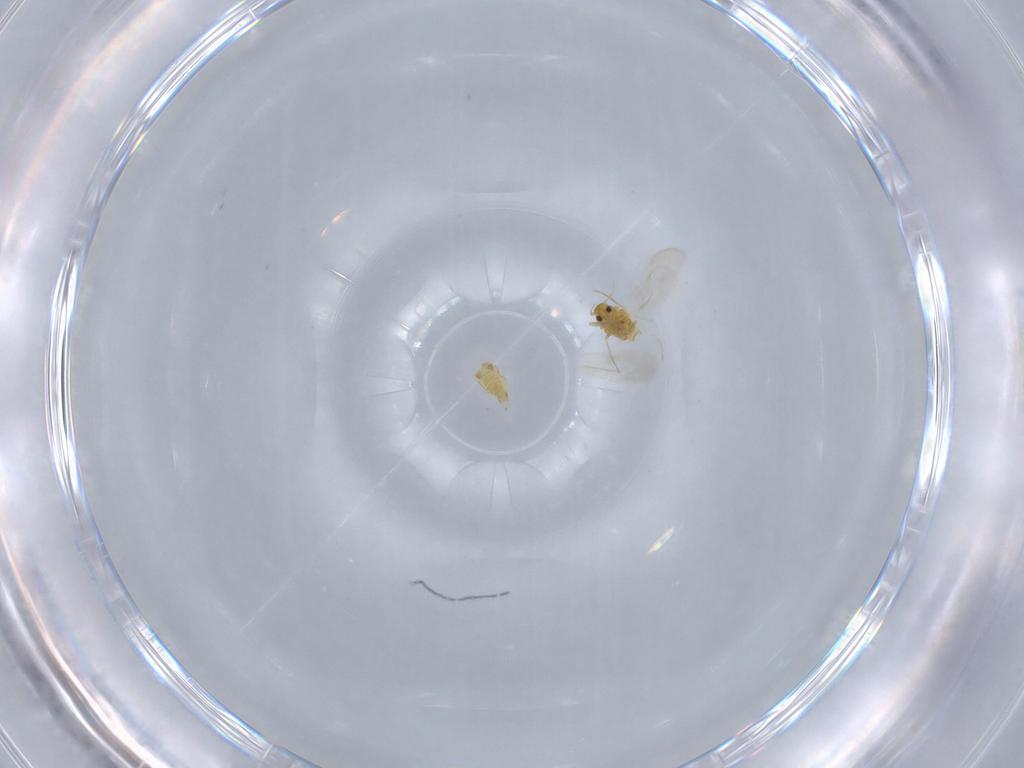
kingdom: Animalia
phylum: Arthropoda
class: Insecta
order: Hemiptera
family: Aleyrodidae
